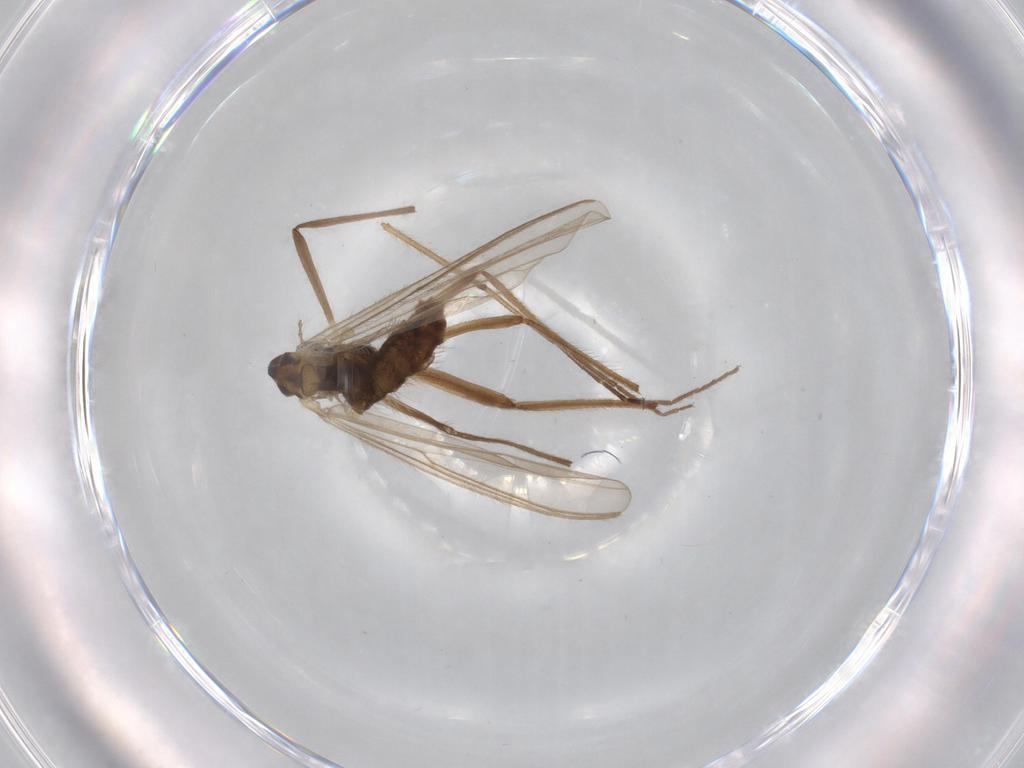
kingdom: Animalia
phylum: Arthropoda
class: Insecta
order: Diptera
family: Chironomidae
